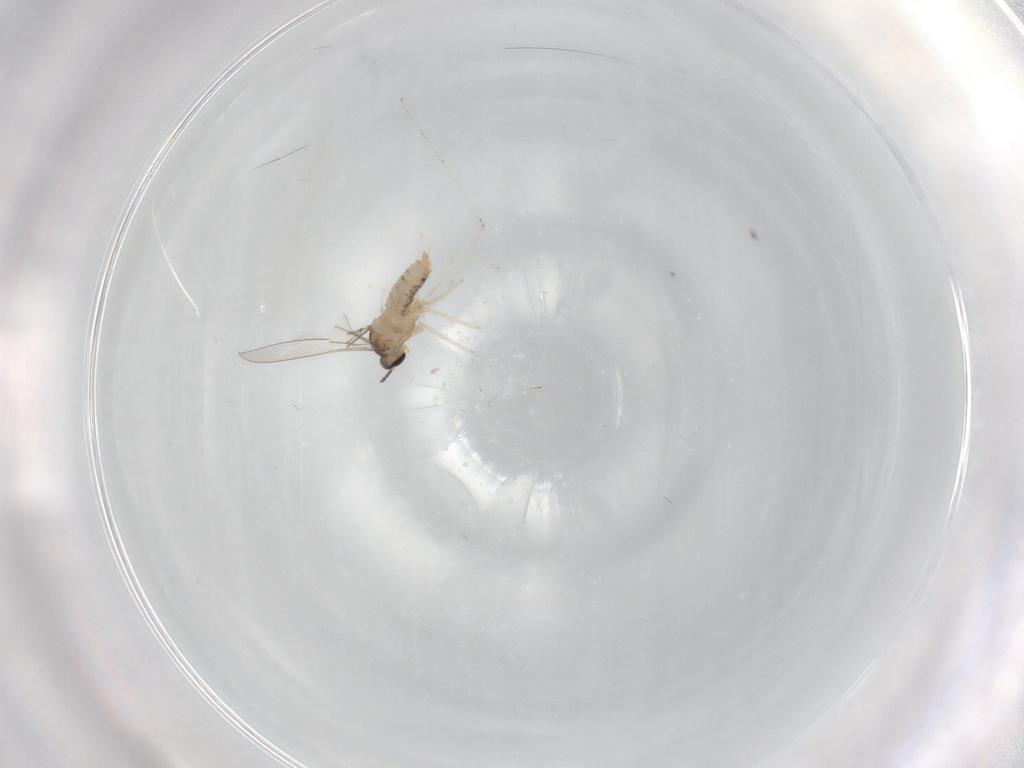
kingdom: Animalia
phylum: Arthropoda
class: Insecta
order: Diptera
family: Cecidomyiidae
